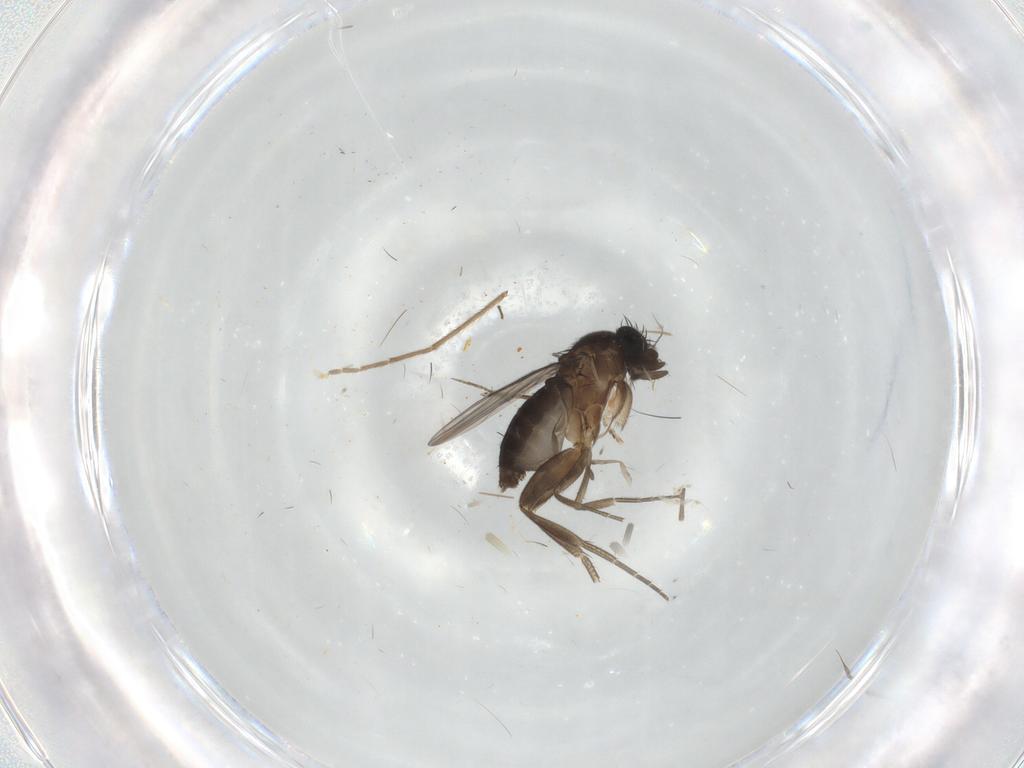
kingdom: Animalia
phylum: Arthropoda
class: Insecta
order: Diptera
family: Phoridae
